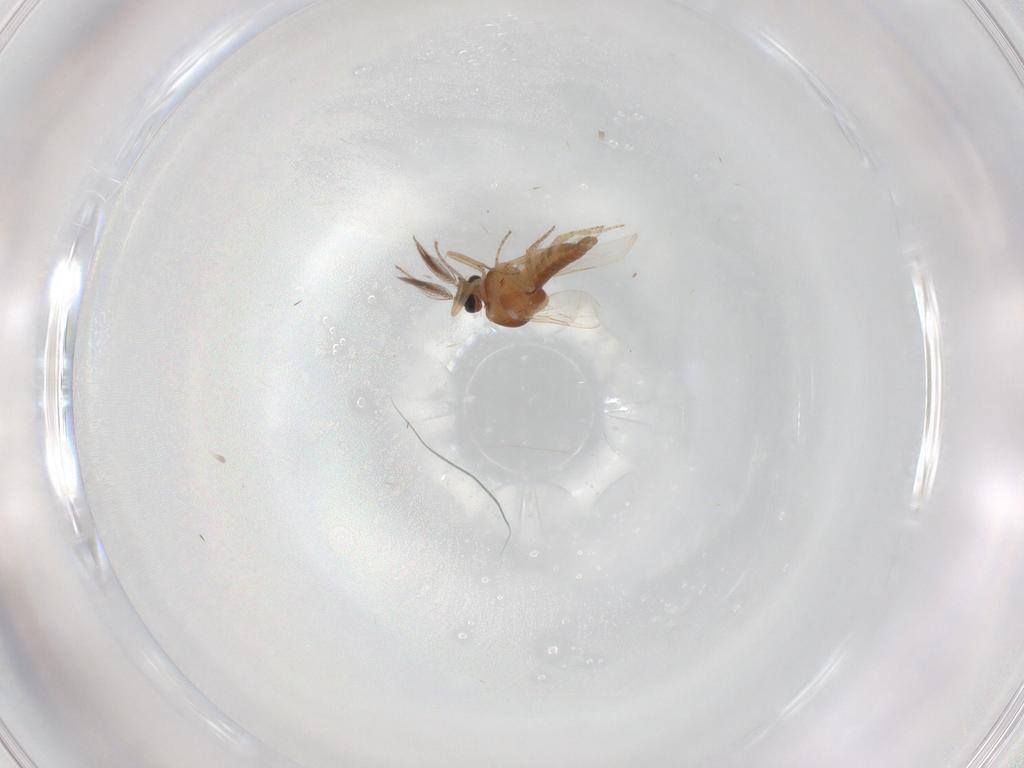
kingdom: Animalia
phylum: Arthropoda
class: Insecta
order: Diptera
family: Ceratopogonidae
